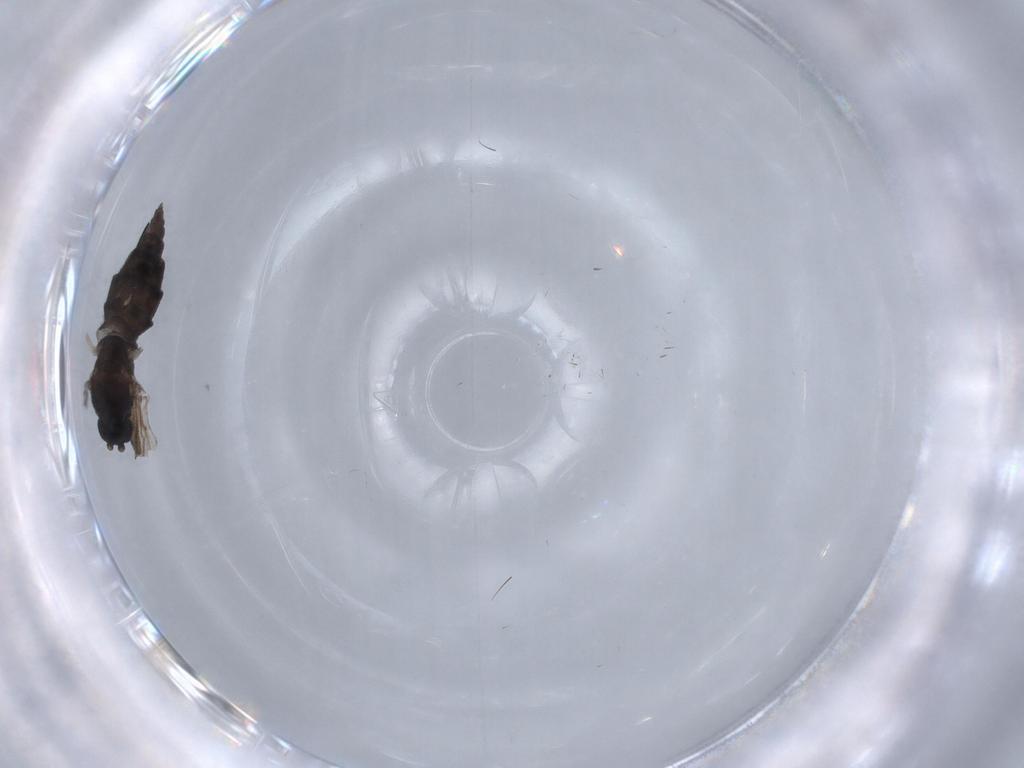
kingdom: Animalia
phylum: Arthropoda
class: Insecta
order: Diptera
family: Sciaridae
